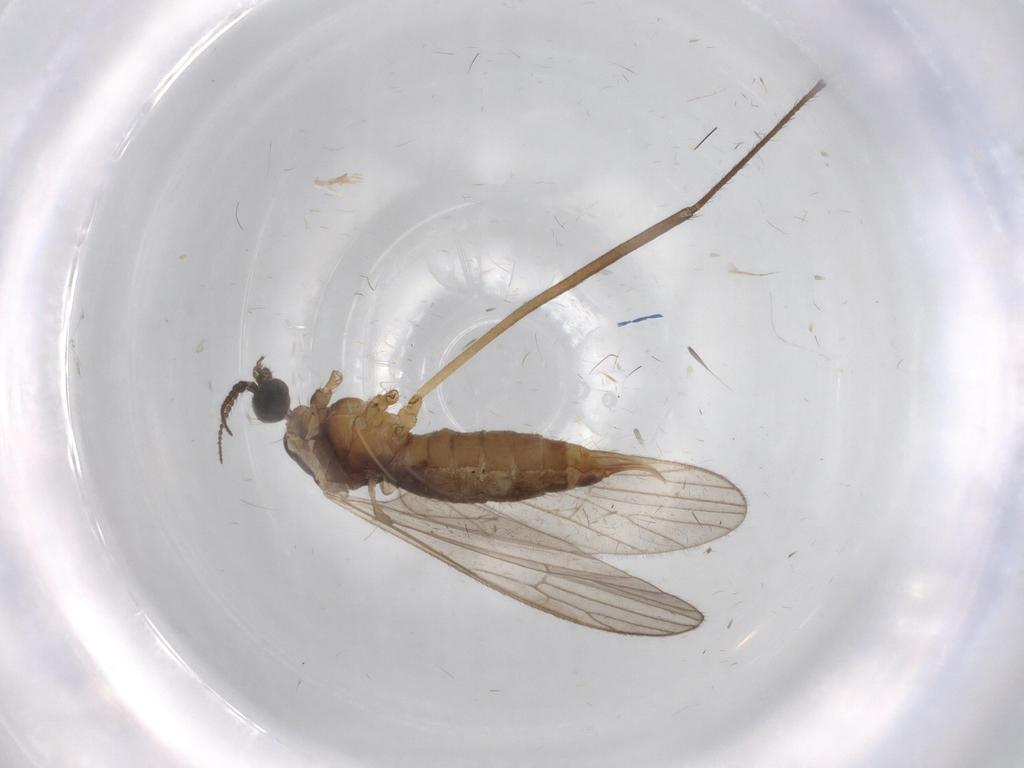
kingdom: Animalia
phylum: Arthropoda
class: Insecta
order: Diptera
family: Agromyzidae
